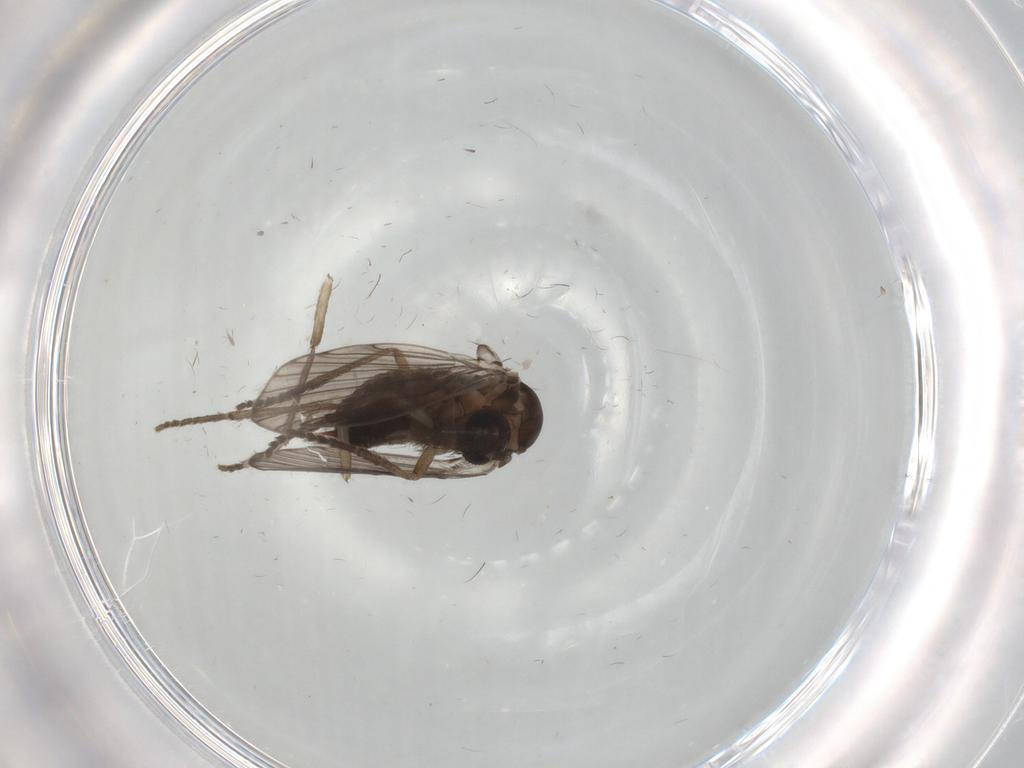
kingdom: Animalia
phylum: Arthropoda
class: Insecta
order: Diptera
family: Psychodidae
